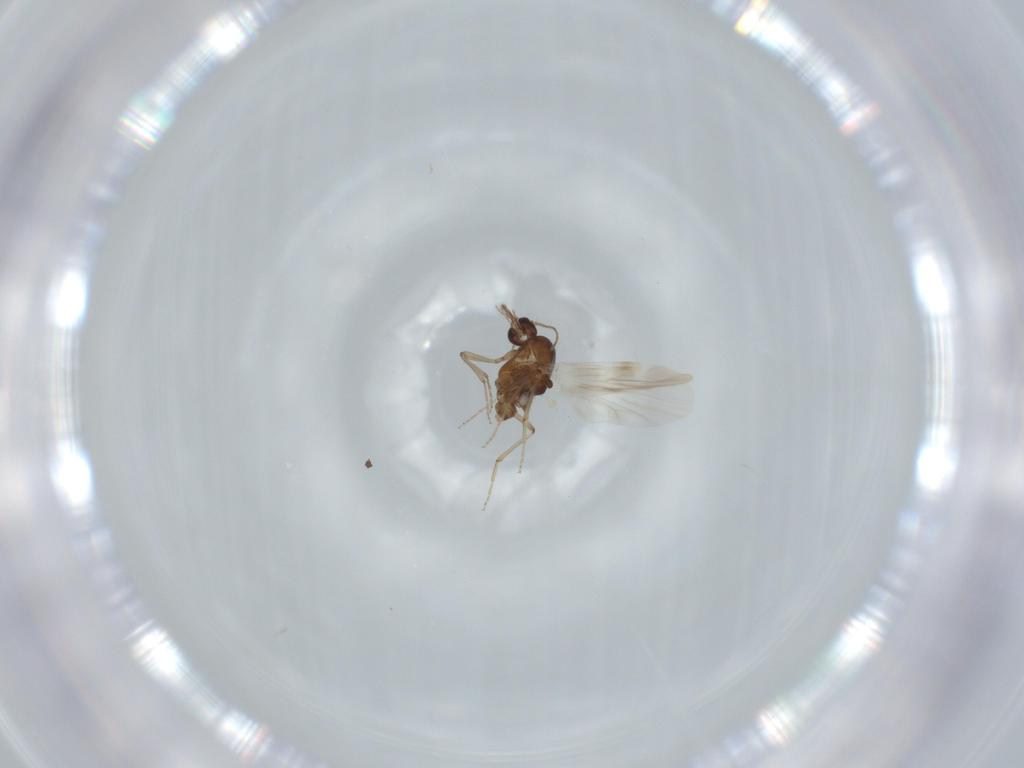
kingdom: Animalia
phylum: Arthropoda
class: Insecta
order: Diptera
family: Ceratopogonidae
